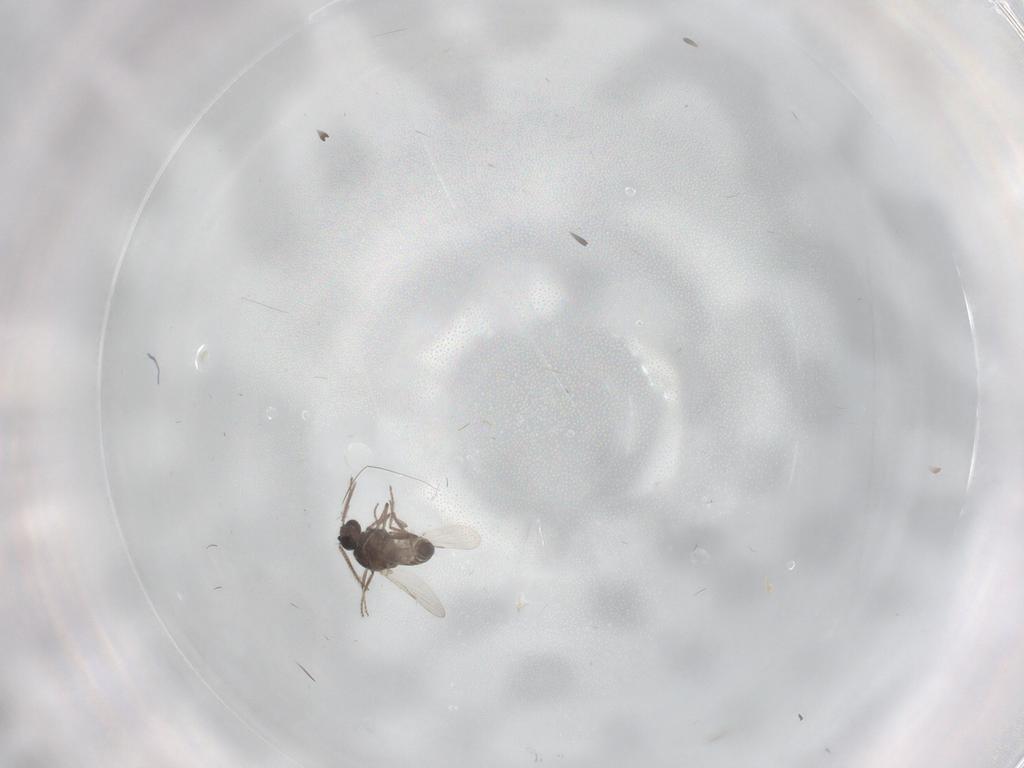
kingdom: Animalia
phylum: Arthropoda
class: Insecta
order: Diptera
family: Ceratopogonidae
